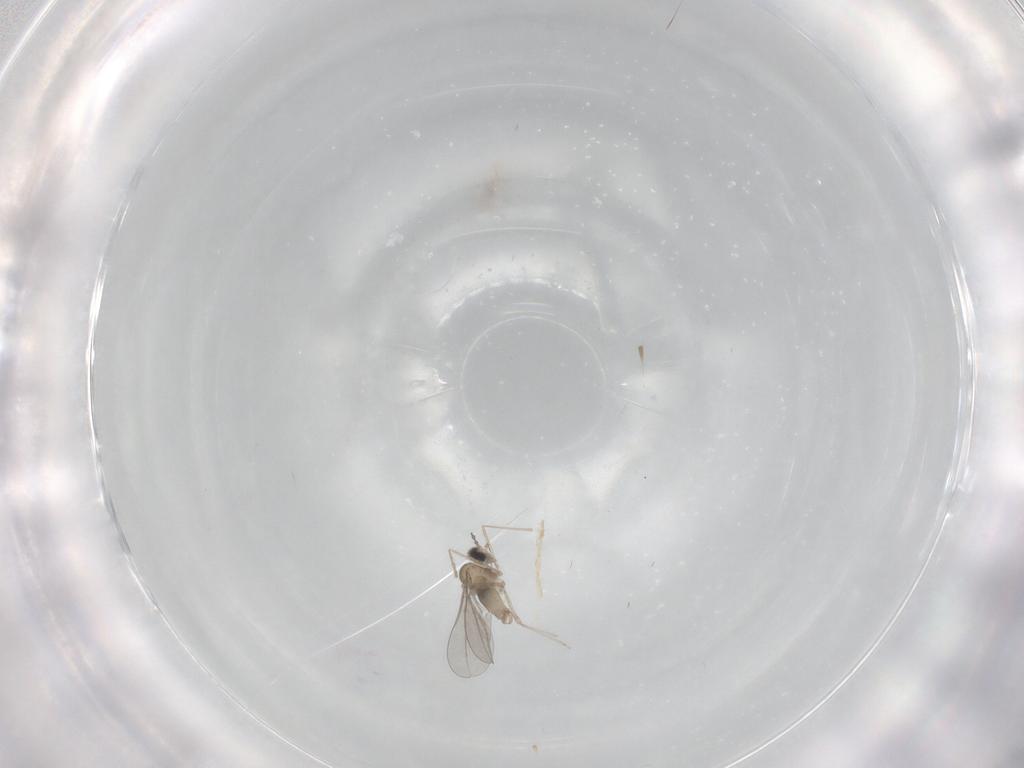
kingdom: Animalia
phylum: Arthropoda
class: Insecta
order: Diptera
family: Cecidomyiidae
